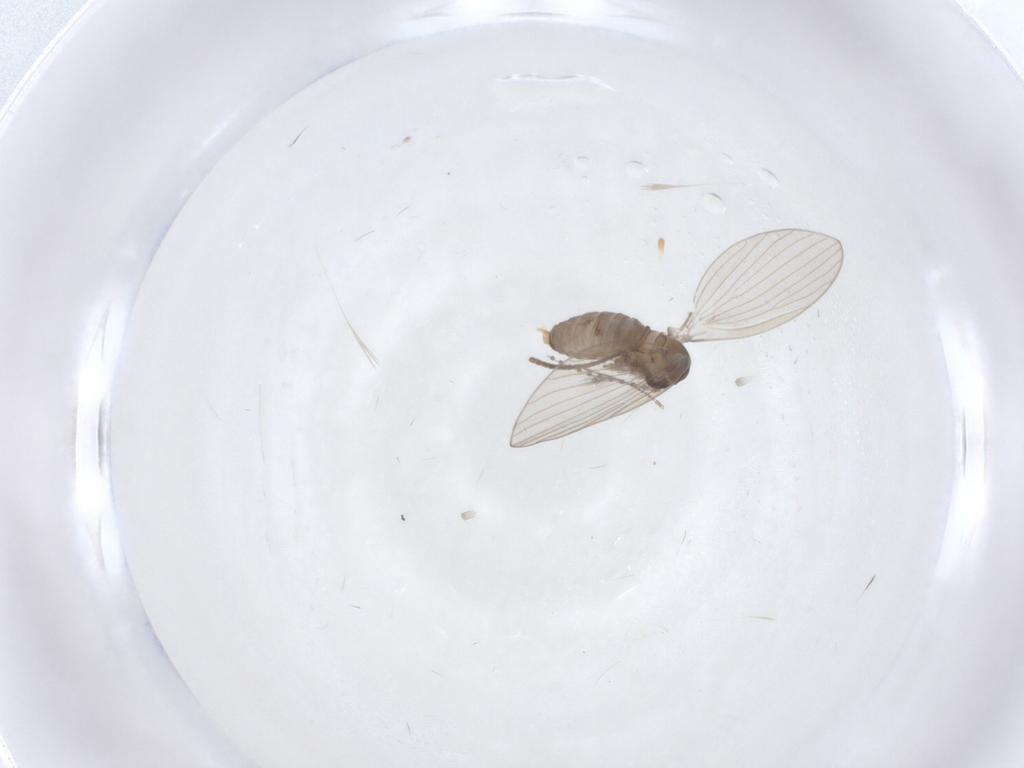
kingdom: Animalia
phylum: Arthropoda
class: Insecta
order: Diptera
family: Psychodidae
